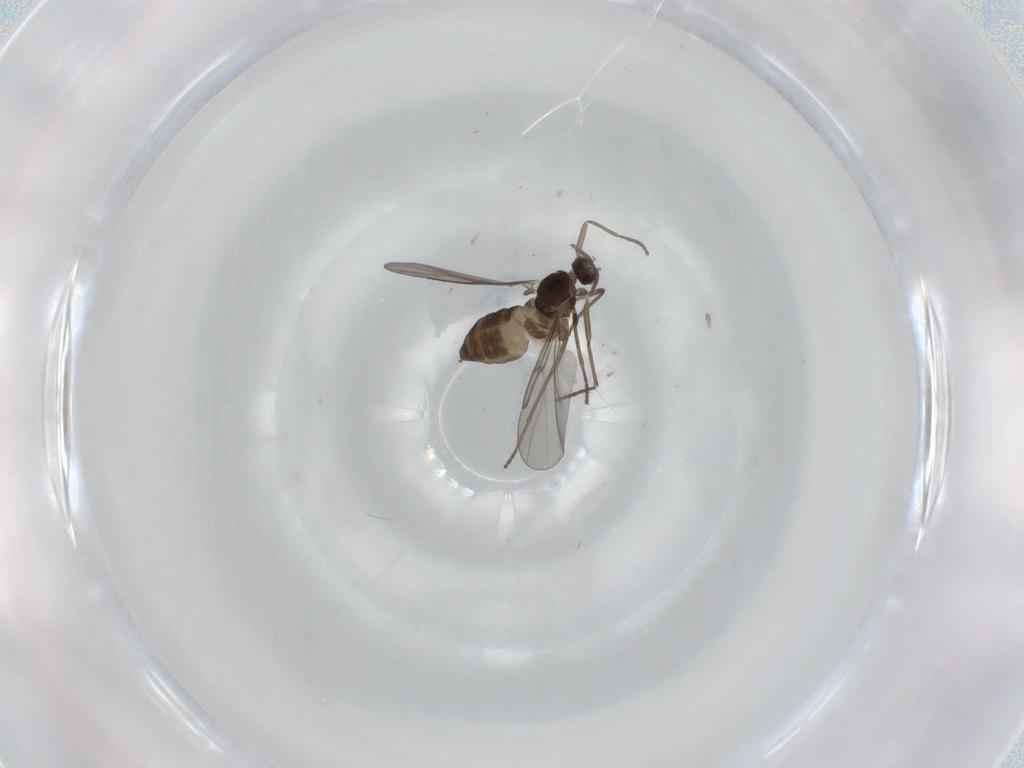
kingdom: Animalia
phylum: Arthropoda
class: Insecta
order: Diptera
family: Cecidomyiidae
